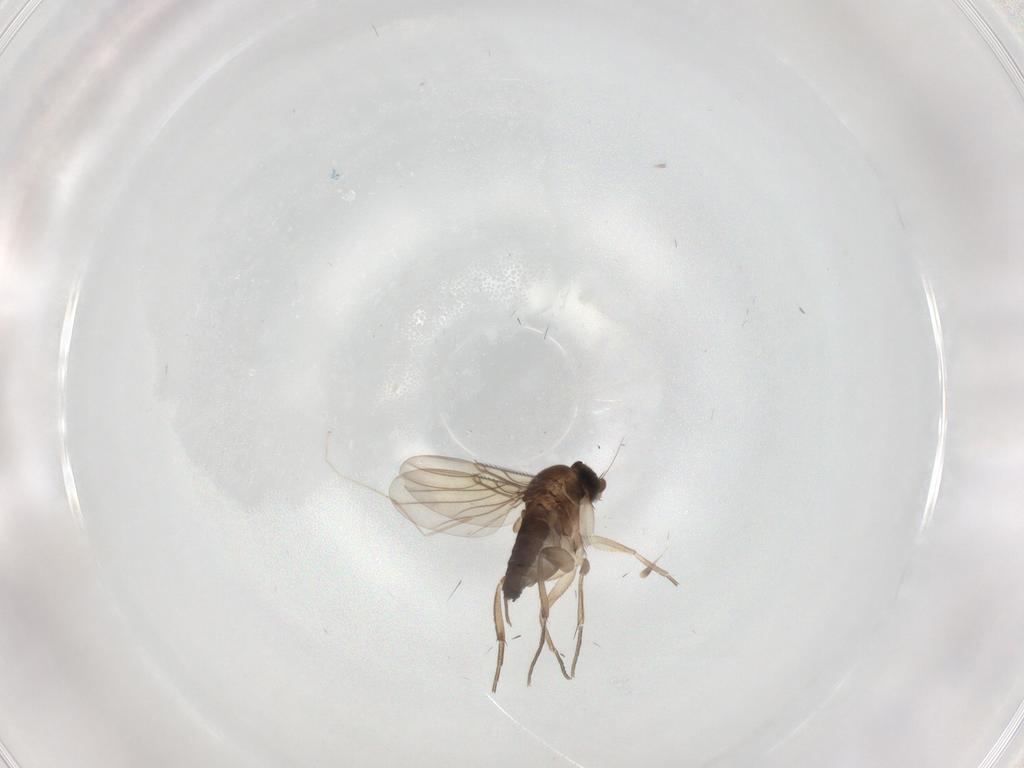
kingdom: Animalia
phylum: Arthropoda
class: Insecta
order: Diptera
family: Phoridae
